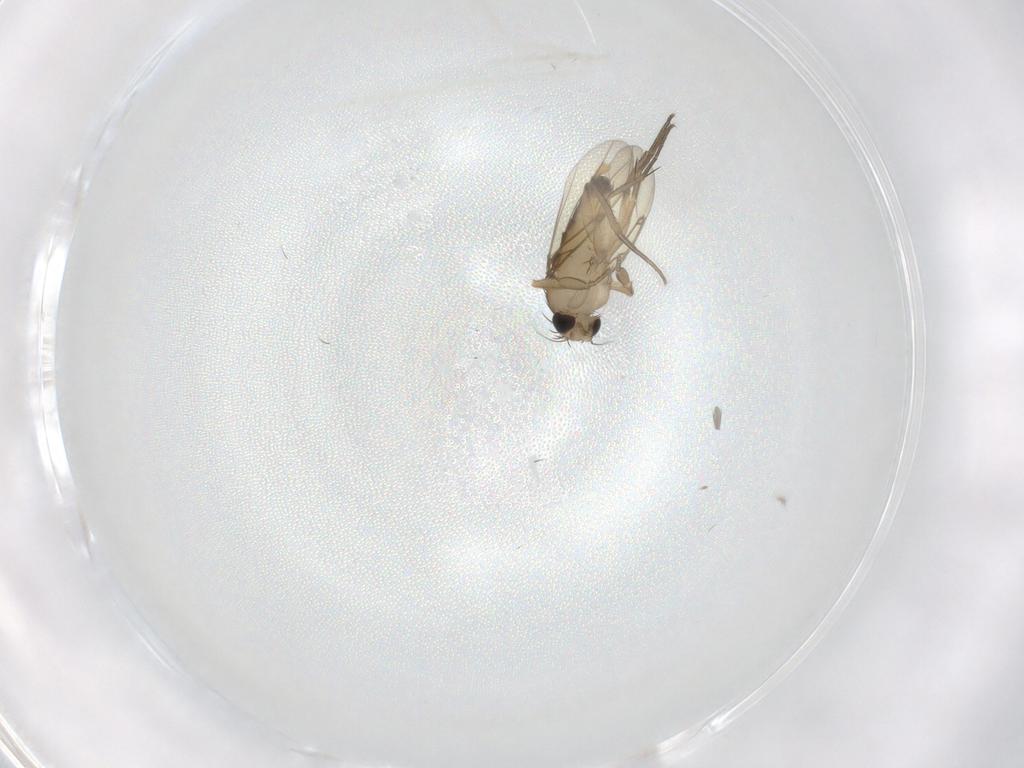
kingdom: Animalia
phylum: Arthropoda
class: Insecta
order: Diptera
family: Phoridae
